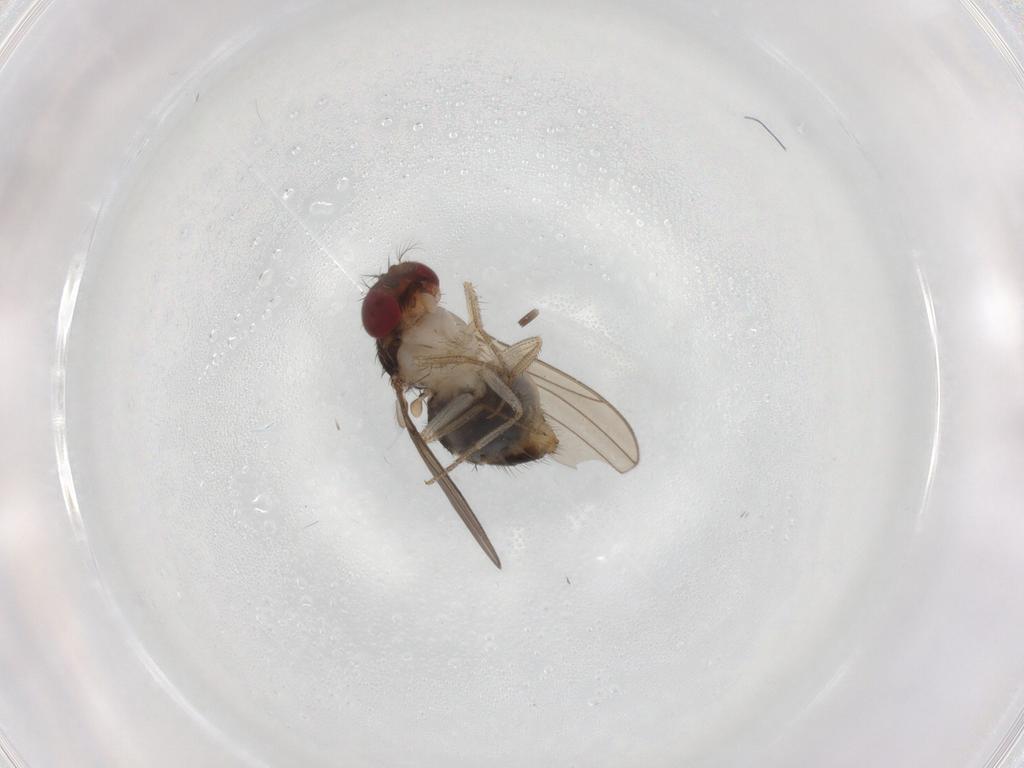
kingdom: Animalia
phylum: Arthropoda
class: Insecta
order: Diptera
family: Drosophilidae
